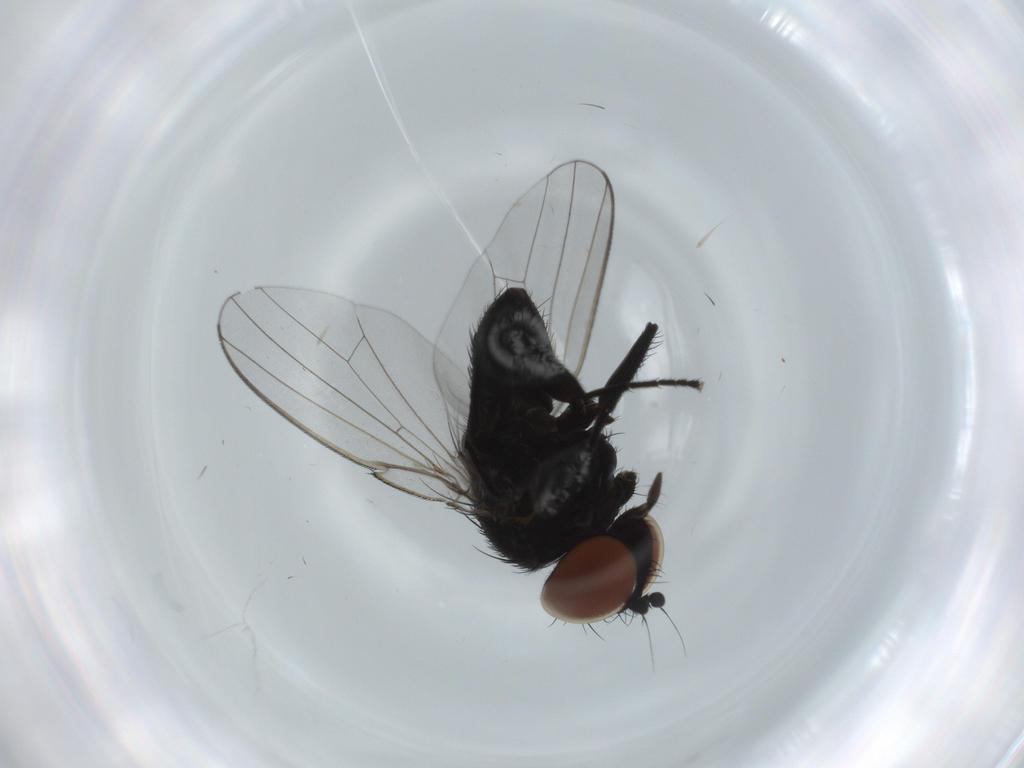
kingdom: Animalia
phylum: Arthropoda
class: Insecta
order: Diptera
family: Milichiidae
